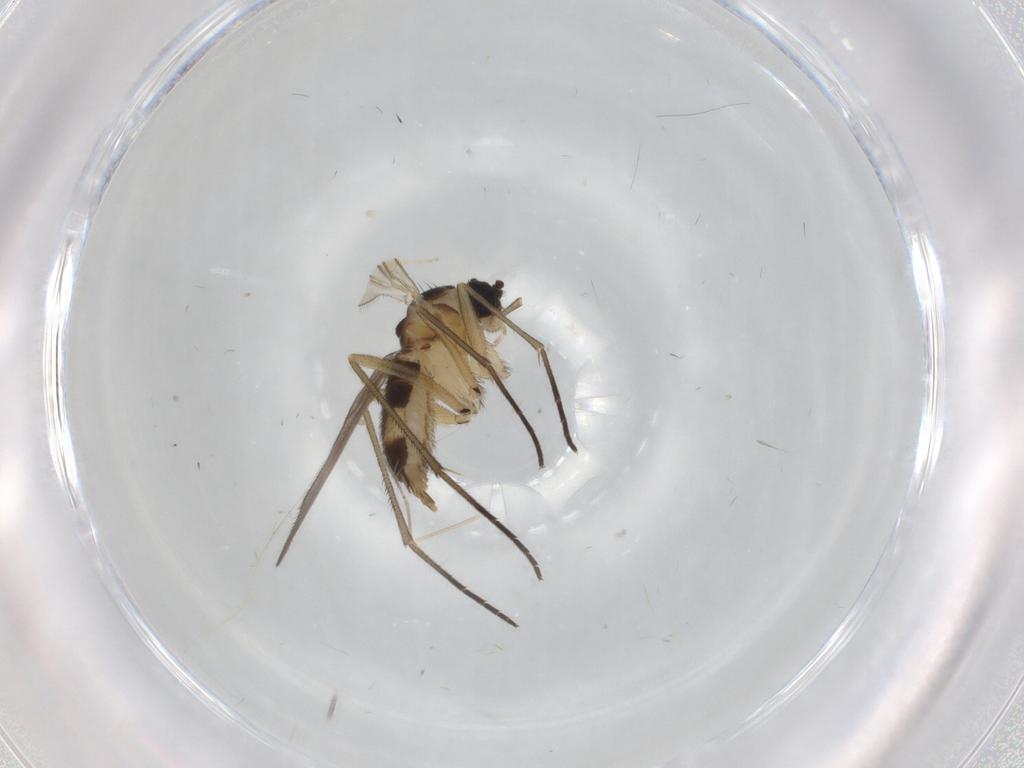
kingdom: Animalia
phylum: Arthropoda
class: Insecta
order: Diptera
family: Sciaridae
